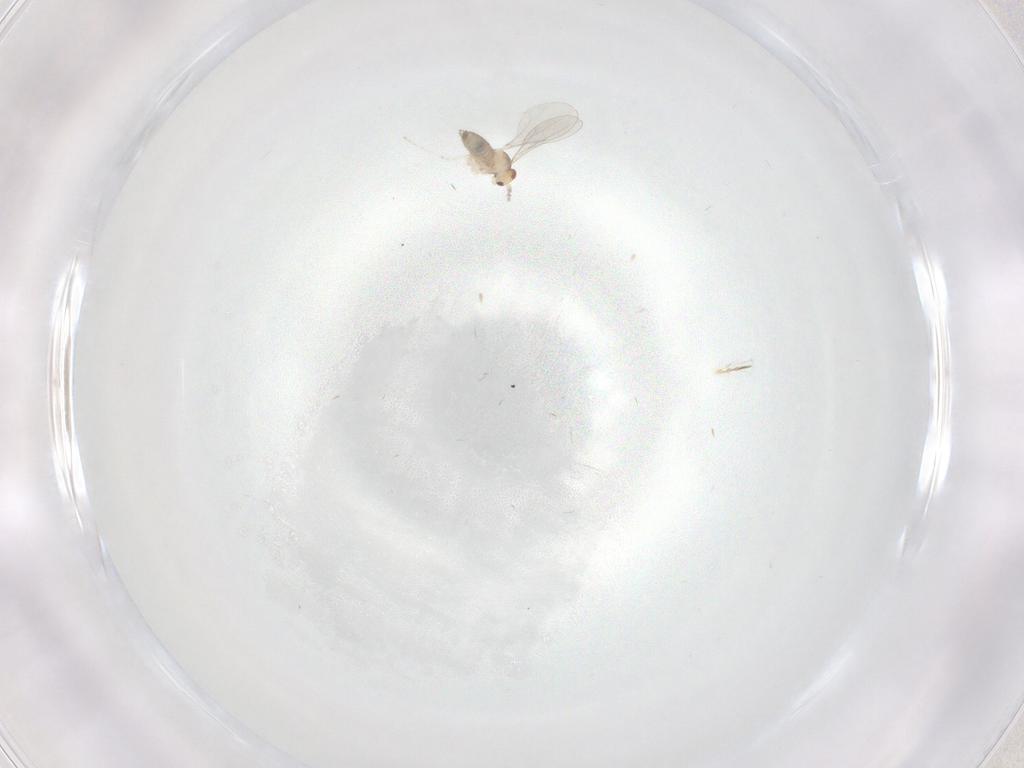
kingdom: Animalia
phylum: Arthropoda
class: Insecta
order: Diptera
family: Cecidomyiidae
